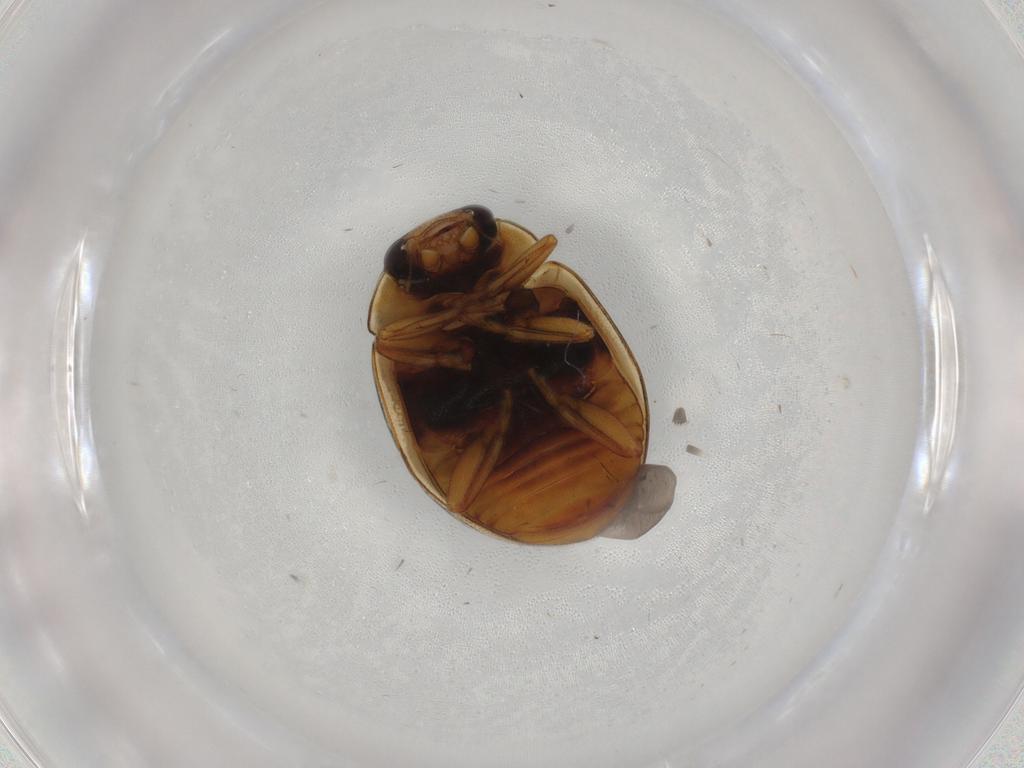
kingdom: Animalia
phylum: Arthropoda
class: Insecta
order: Coleoptera
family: Coccinellidae
